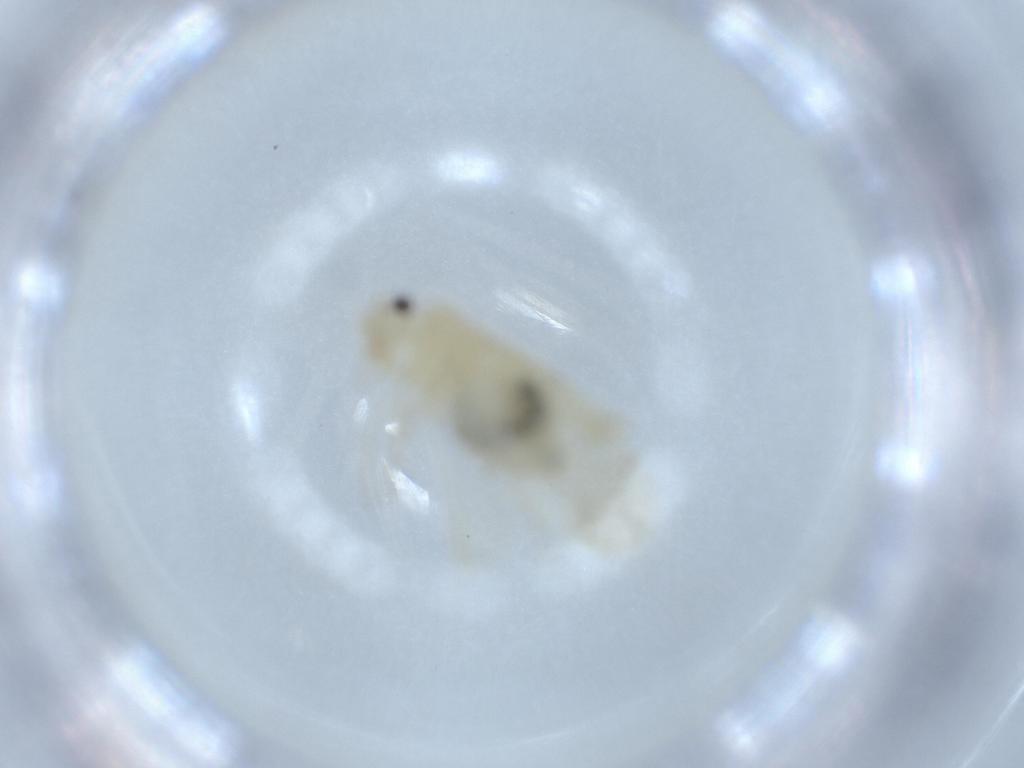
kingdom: Animalia
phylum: Arthropoda
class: Insecta
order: Psocodea
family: Caeciliusidae
